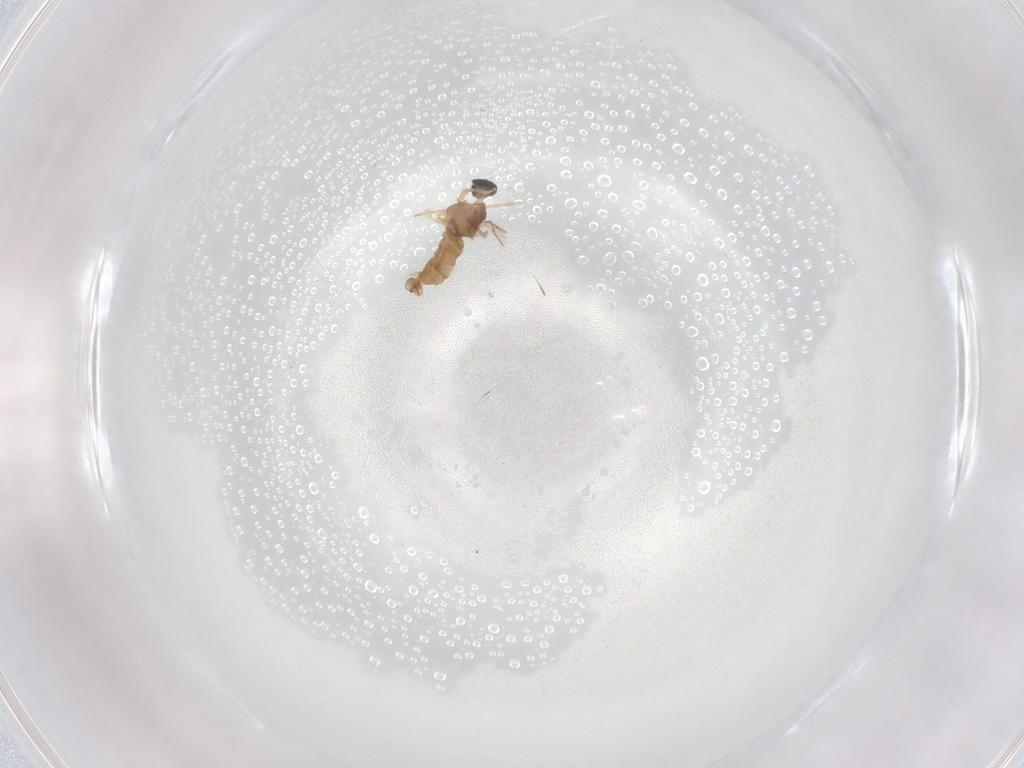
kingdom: Animalia
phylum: Arthropoda
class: Insecta
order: Diptera
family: Cecidomyiidae
